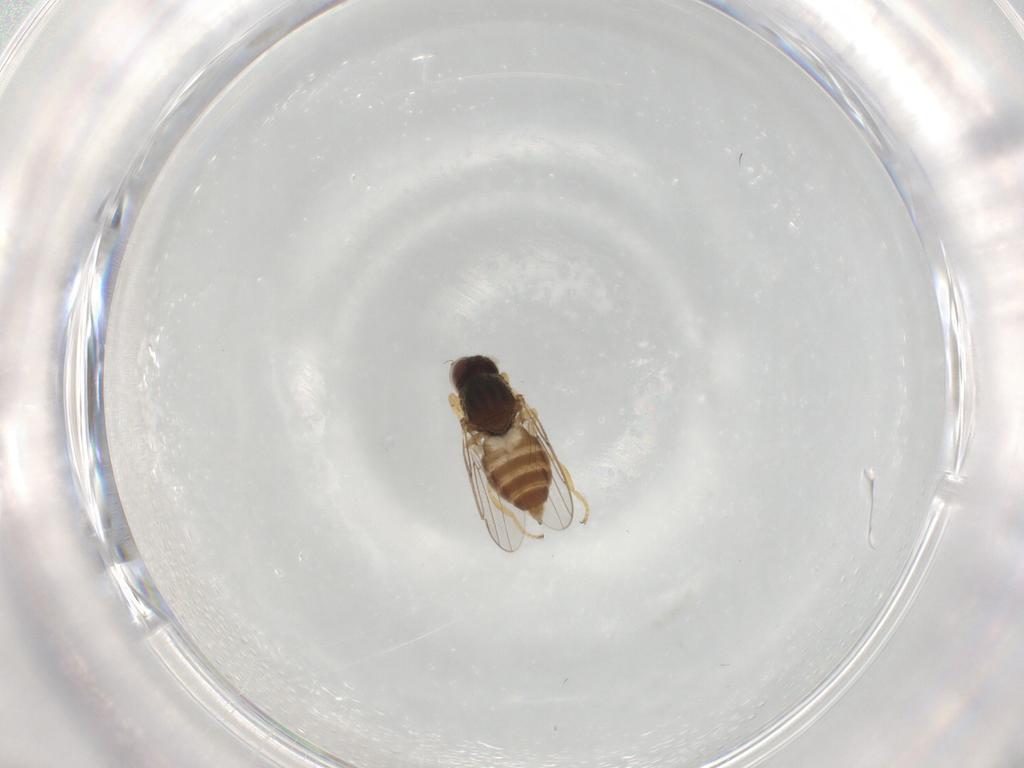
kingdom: Animalia
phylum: Arthropoda
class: Insecta
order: Diptera
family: Chloropidae
